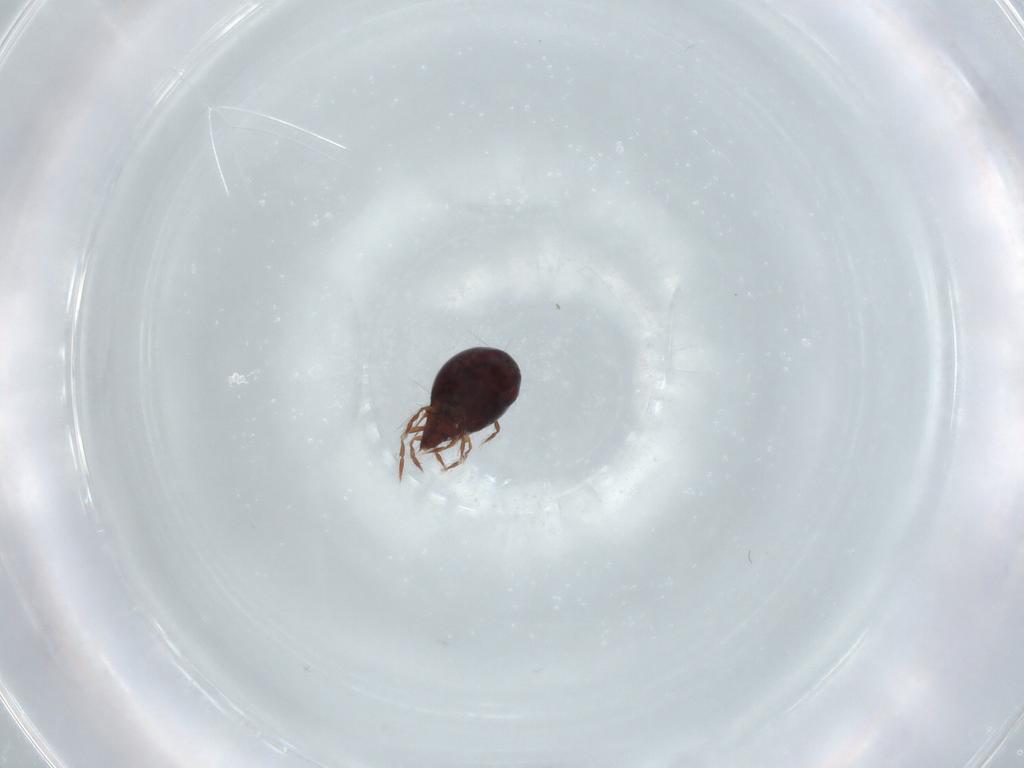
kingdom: Animalia
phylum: Arthropoda
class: Arachnida
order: Sarcoptiformes
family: Ceratoppiidae
